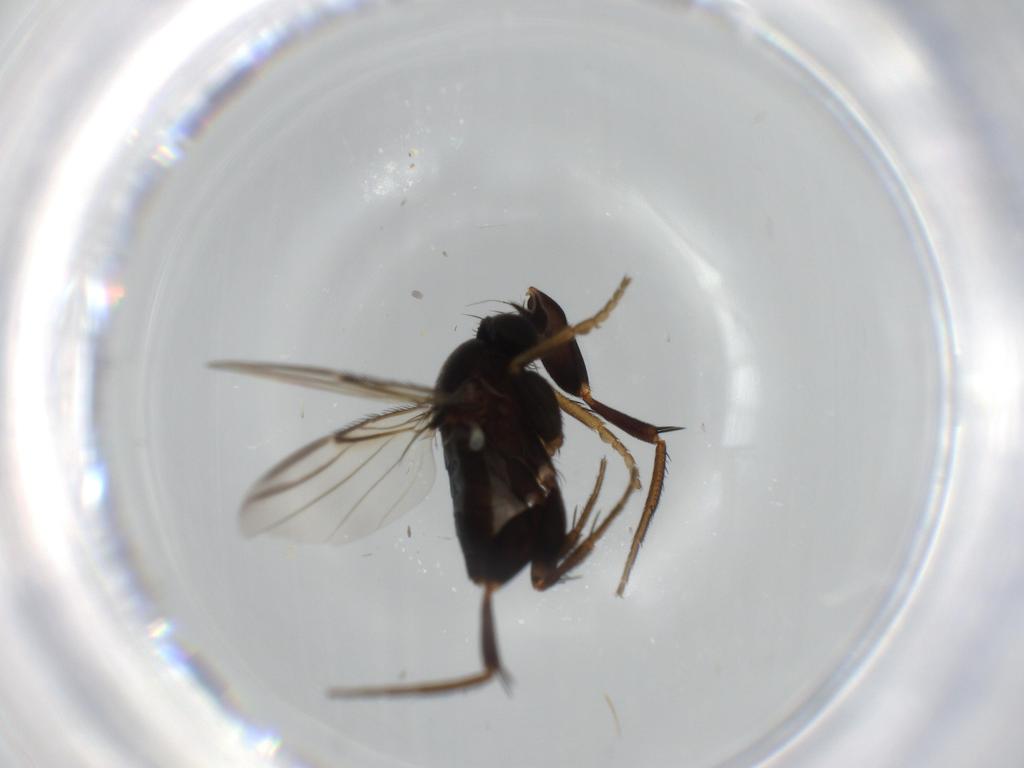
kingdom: Animalia
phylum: Arthropoda
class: Insecta
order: Diptera
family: Phoridae
